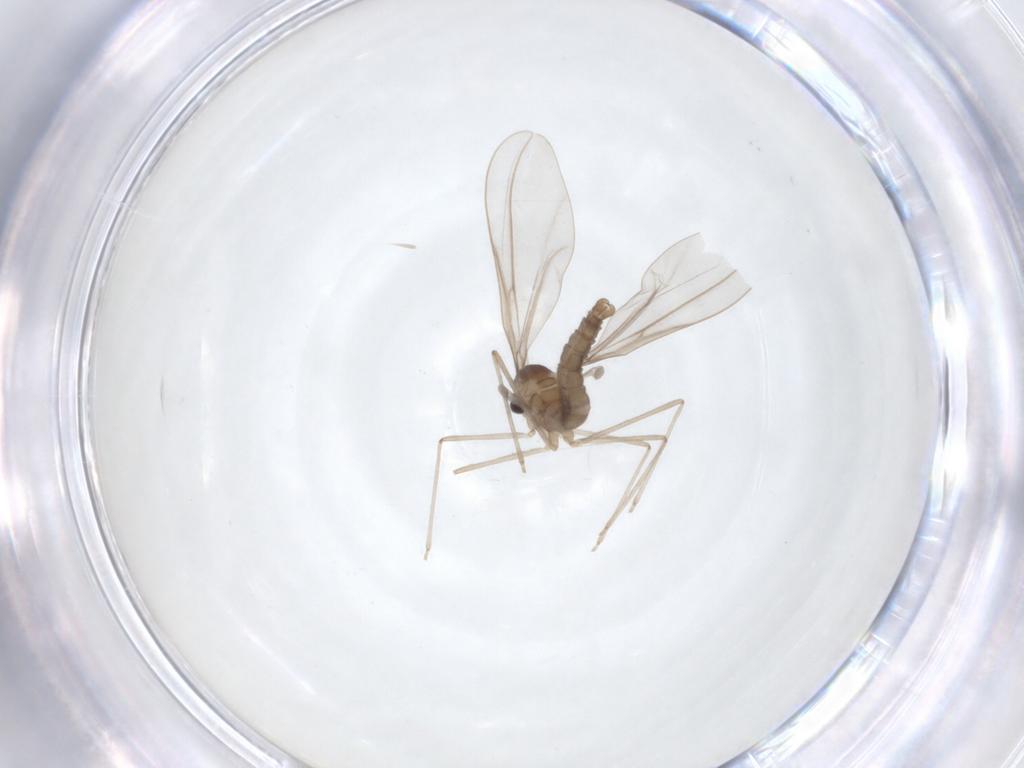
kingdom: Animalia
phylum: Arthropoda
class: Insecta
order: Diptera
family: Cecidomyiidae
